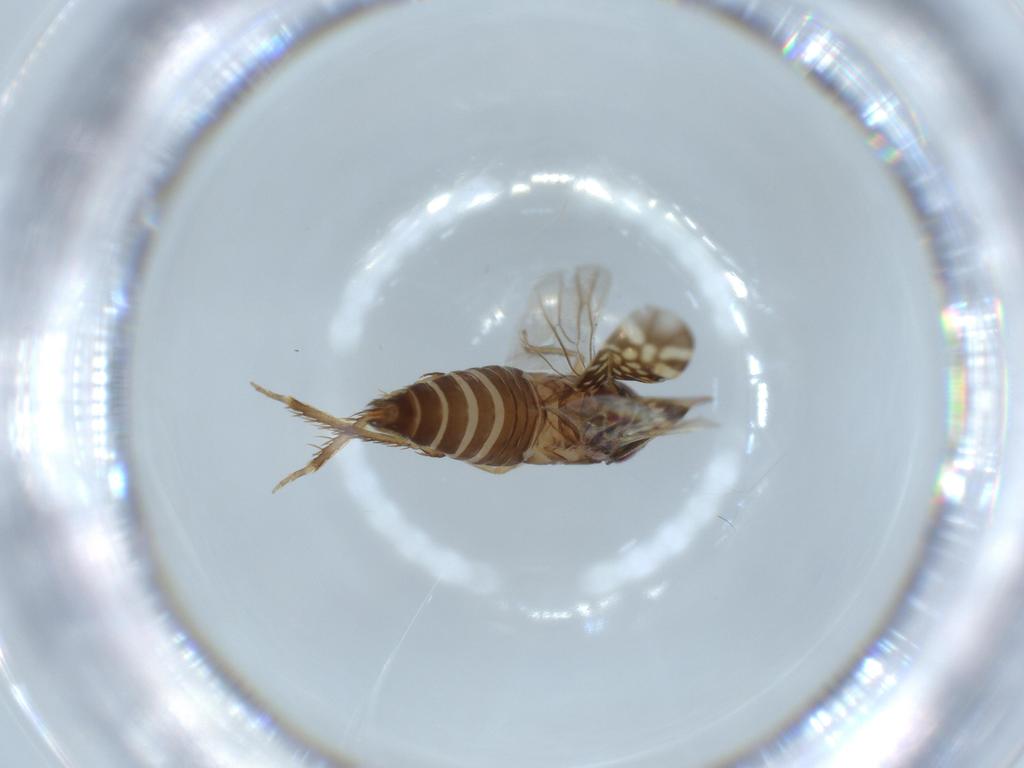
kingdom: Animalia
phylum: Arthropoda
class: Insecta
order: Hemiptera
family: Cicadellidae
